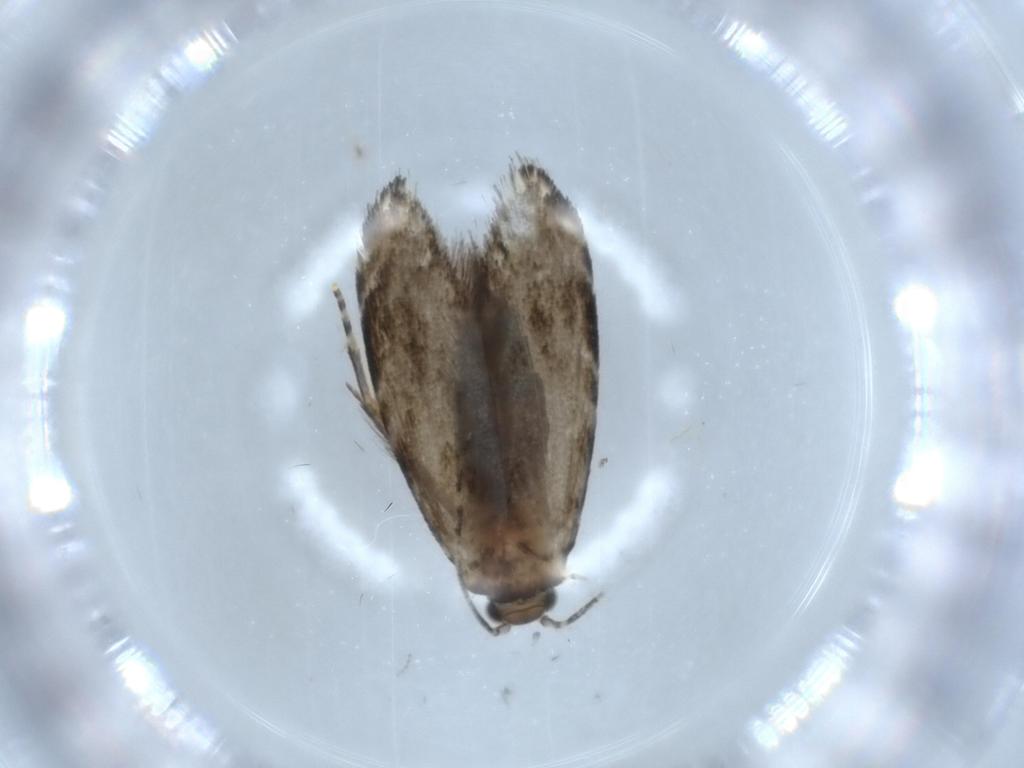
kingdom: Animalia
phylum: Arthropoda
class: Insecta
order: Lepidoptera
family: Tineidae
